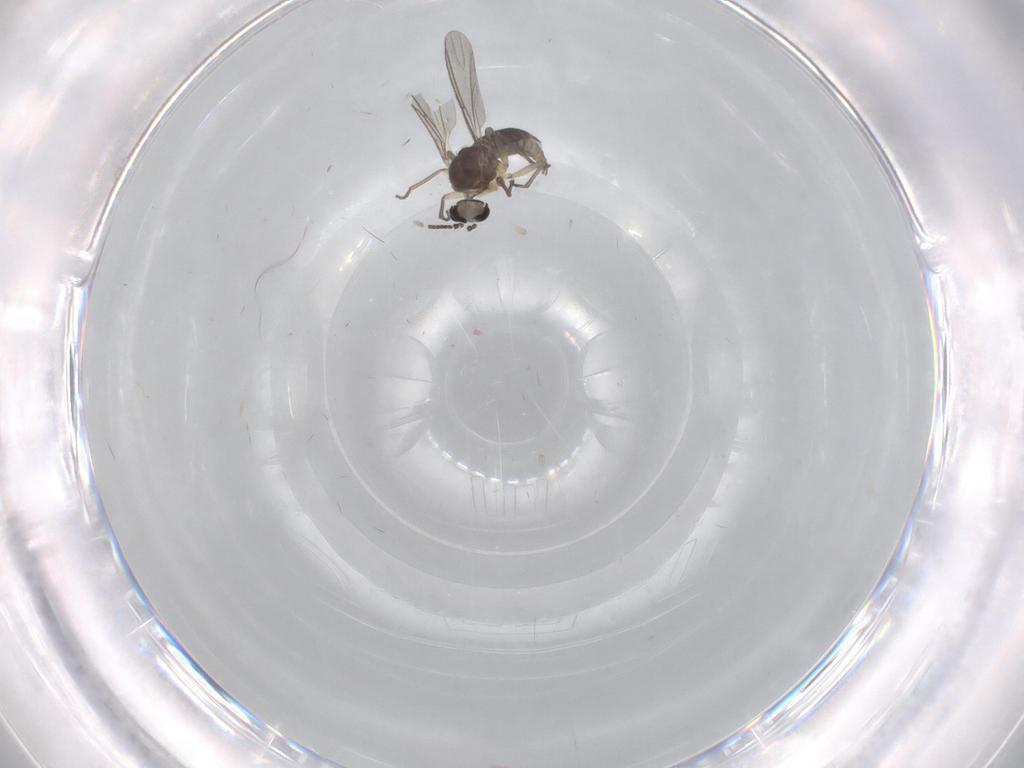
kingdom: Animalia
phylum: Arthropoda
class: Insecta
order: Diptera
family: Sciaridae
